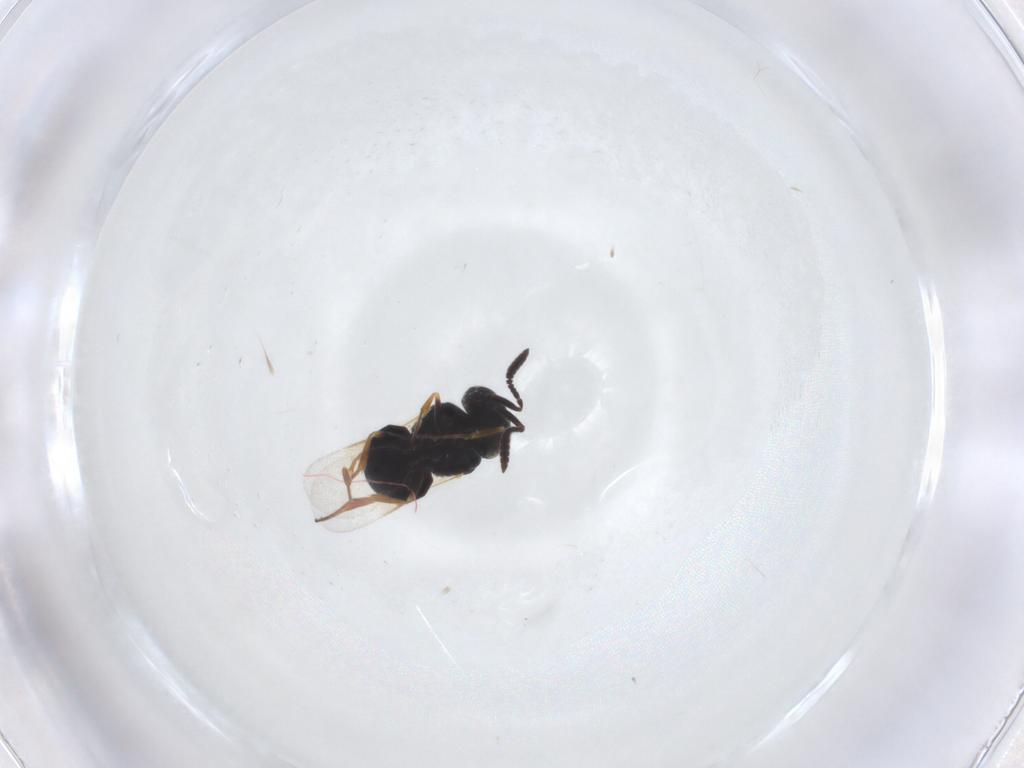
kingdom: Animalia
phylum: Arthropoda
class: Insecta
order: Hymenoptera
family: Scelionidae
